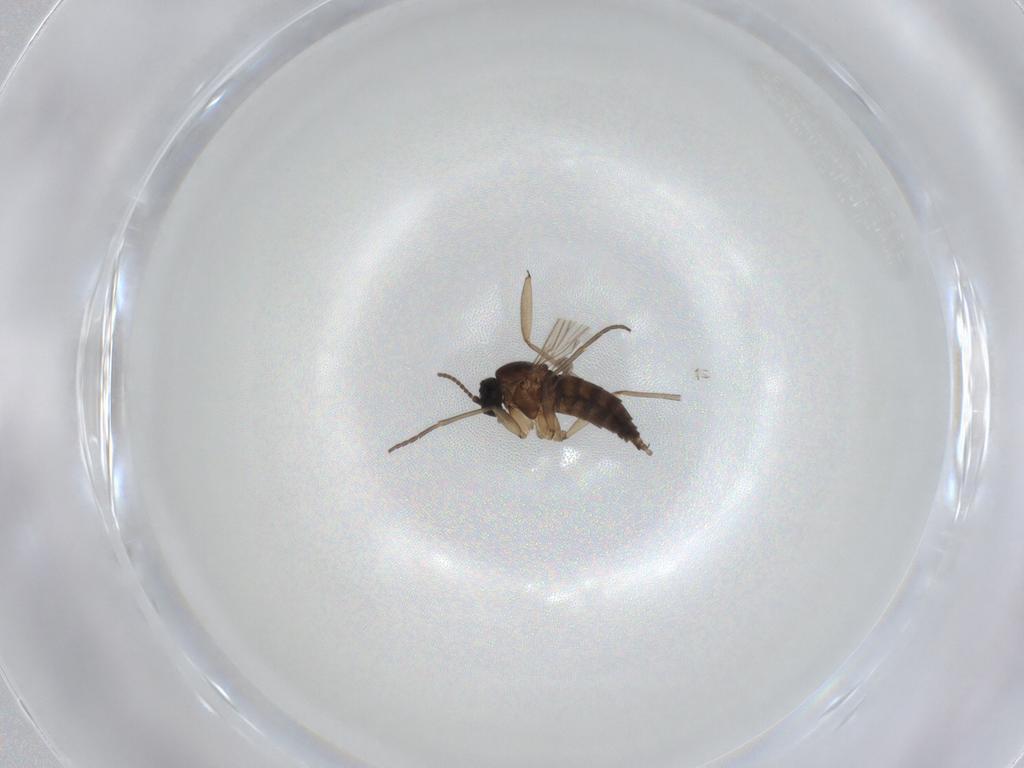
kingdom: Animalia
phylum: Arthropoda
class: Insecta
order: Diptera
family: Sciaridae
